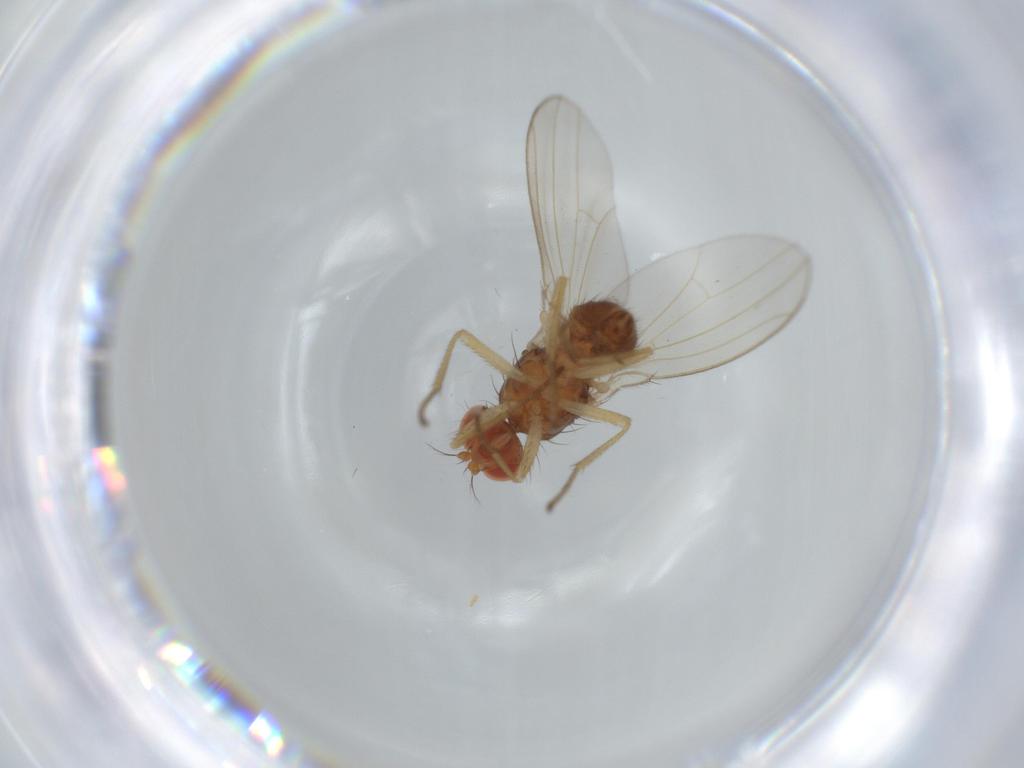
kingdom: Animalia
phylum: Arthropoda
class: Insecta
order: Diptera
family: Drosophilidae
